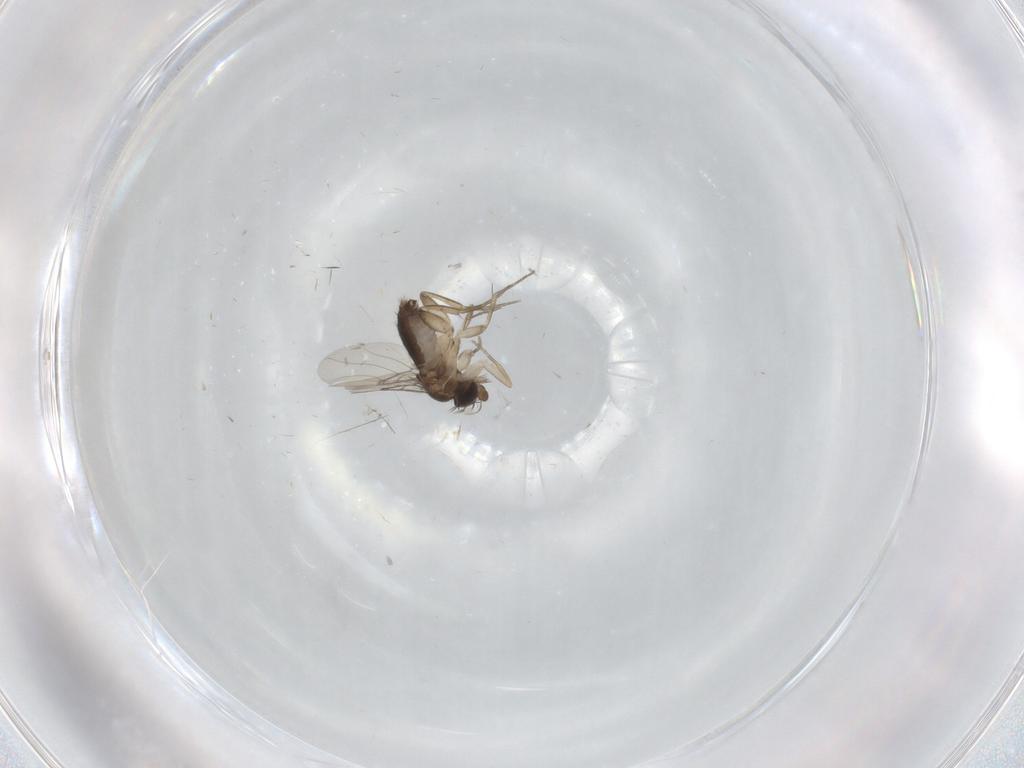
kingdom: Animalia
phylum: Arthropoda
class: Insecta
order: Diptera
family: Phoridae
